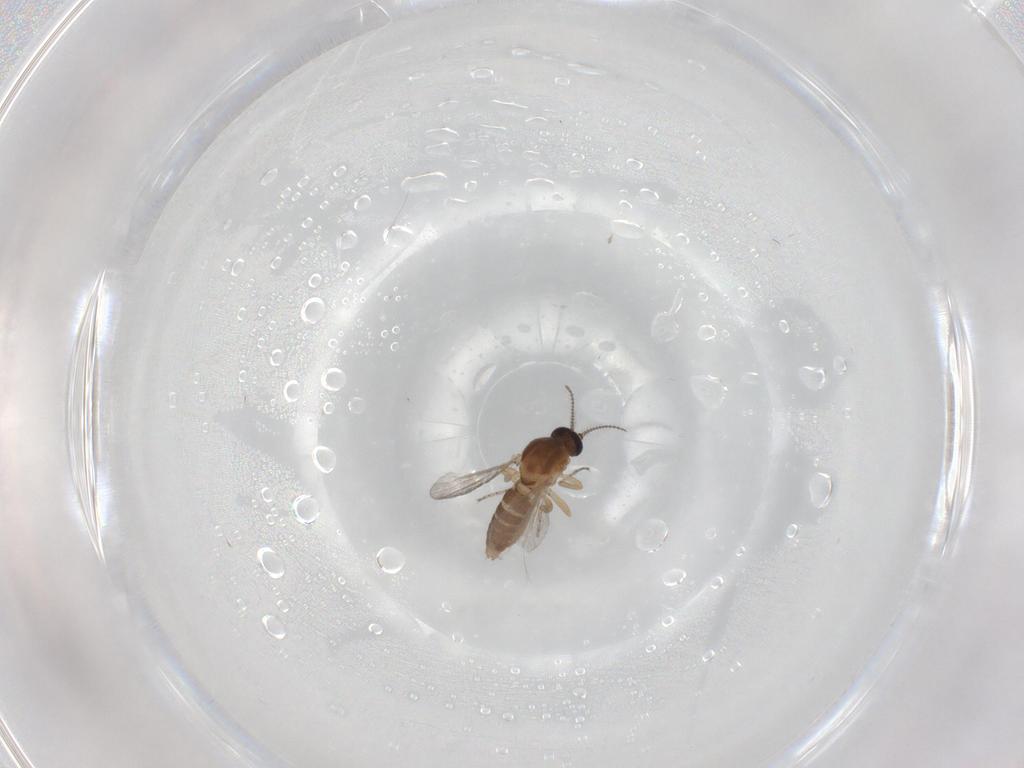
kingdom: Animalia
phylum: Arthropoda
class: Insecta
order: Diptera
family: Ceratopogonidae
